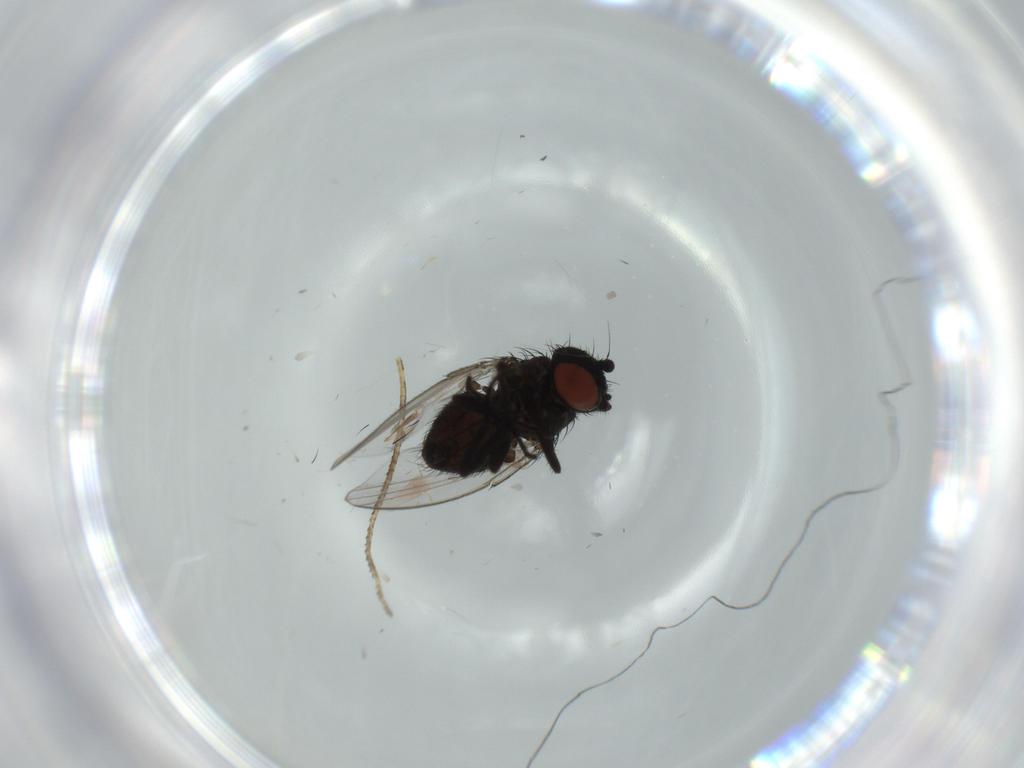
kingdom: Animalia
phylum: Arthropoda
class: Insecta
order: Diptera
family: Milichiidae
